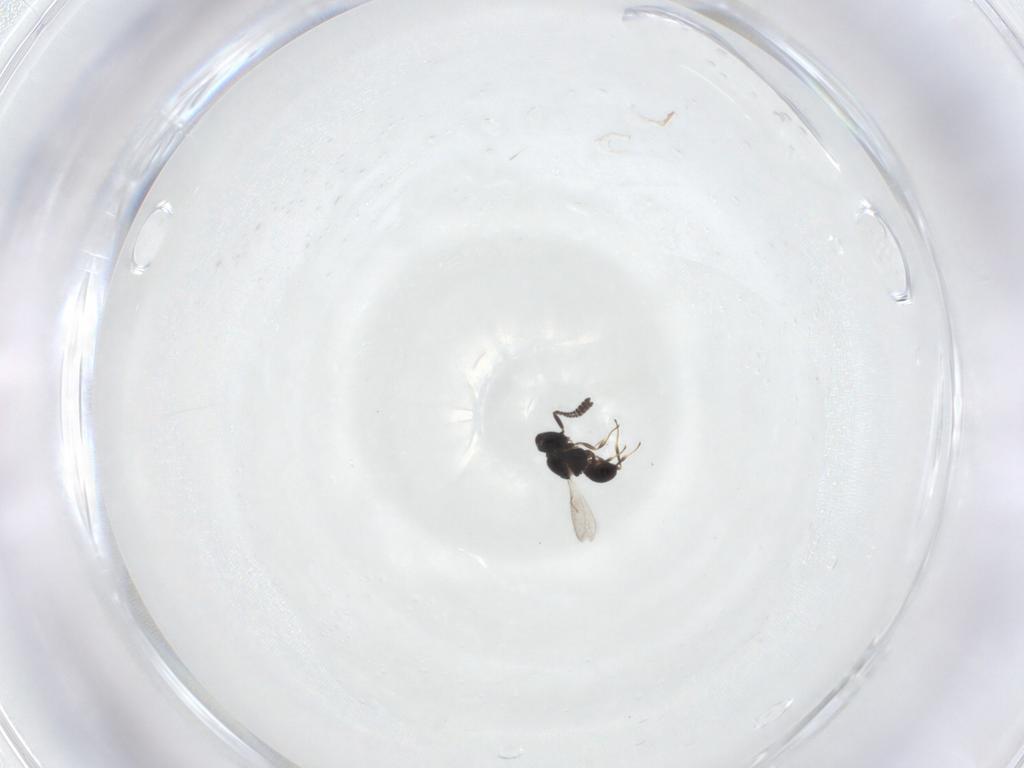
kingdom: Animalia
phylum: Arthropoda
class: Insecta
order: Hymenoptera
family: Scelionidae
